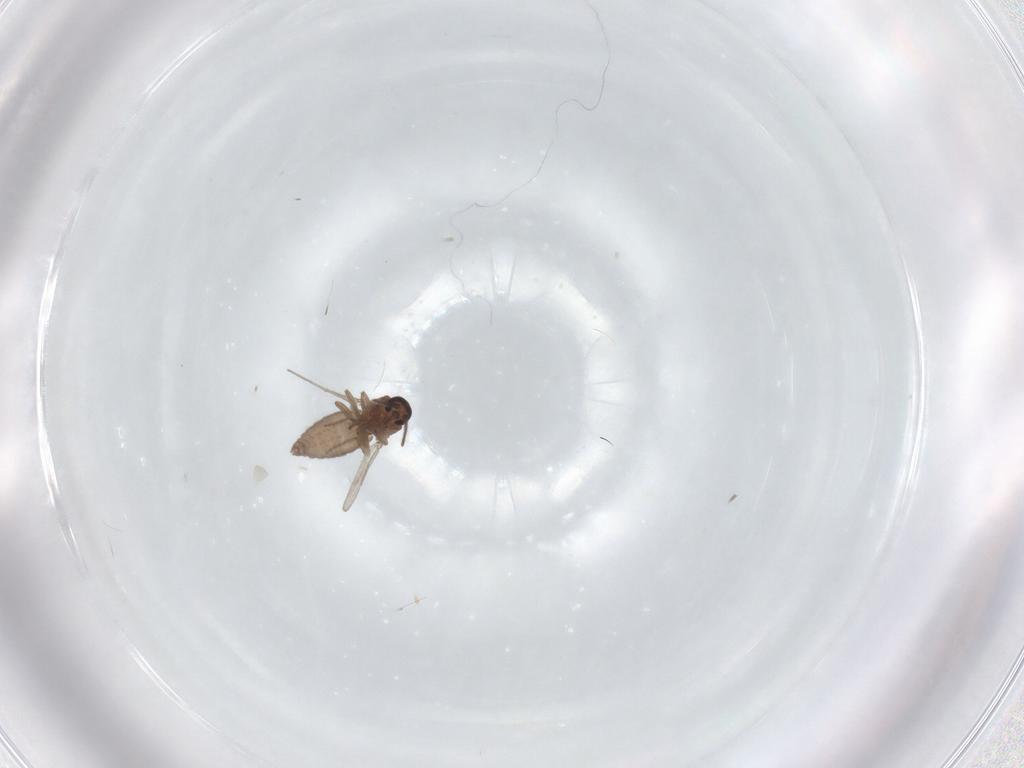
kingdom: Animalia
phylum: Arthropoda
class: Insecta
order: Diptera
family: Ceratopogonidae
